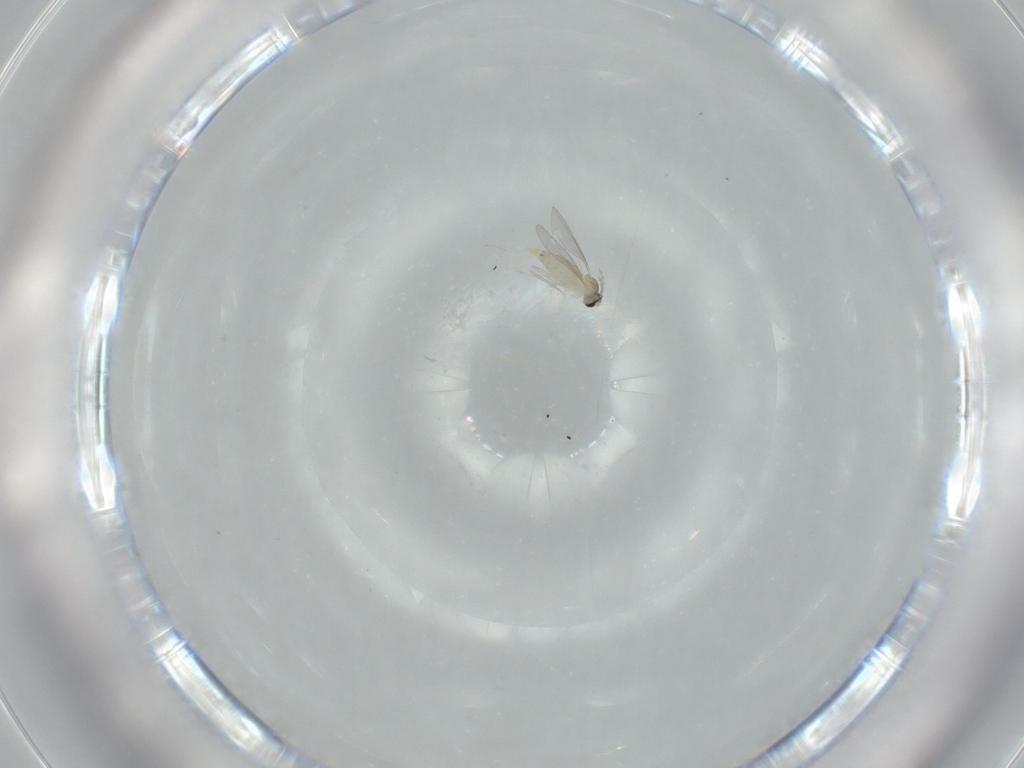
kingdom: Animalia
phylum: Arthropoda
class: Insecta
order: Diptera
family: Cecidomyiidae
